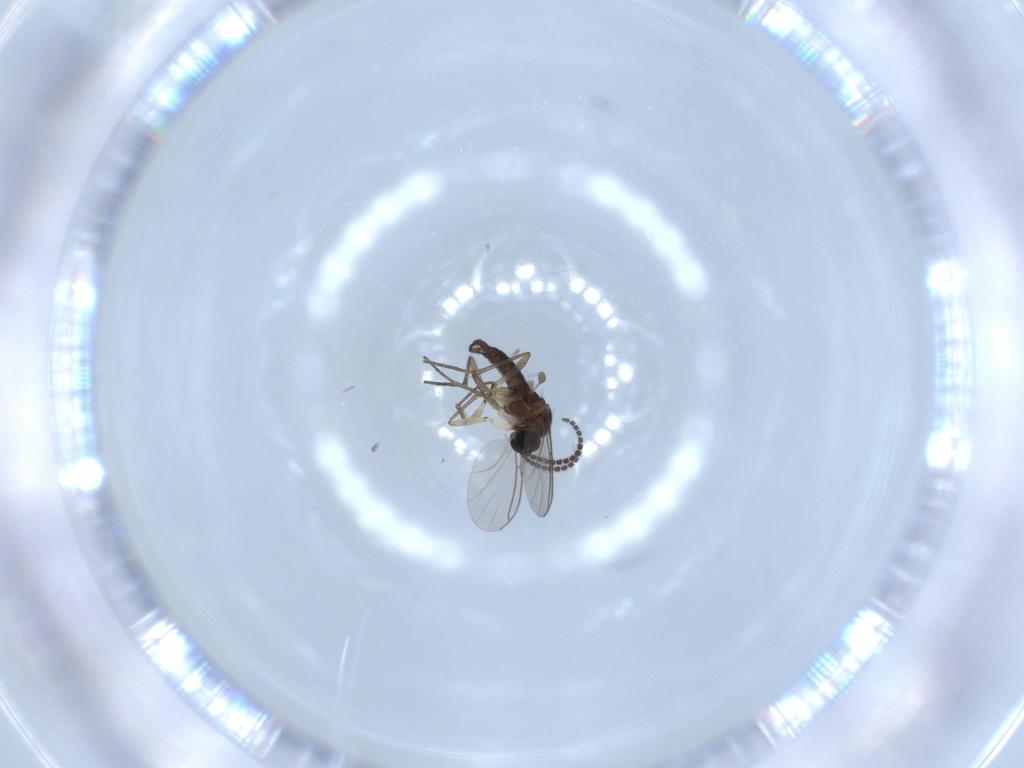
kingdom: Animalia
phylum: Arthropoda
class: Insecta
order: Diptera
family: Sciaridae
